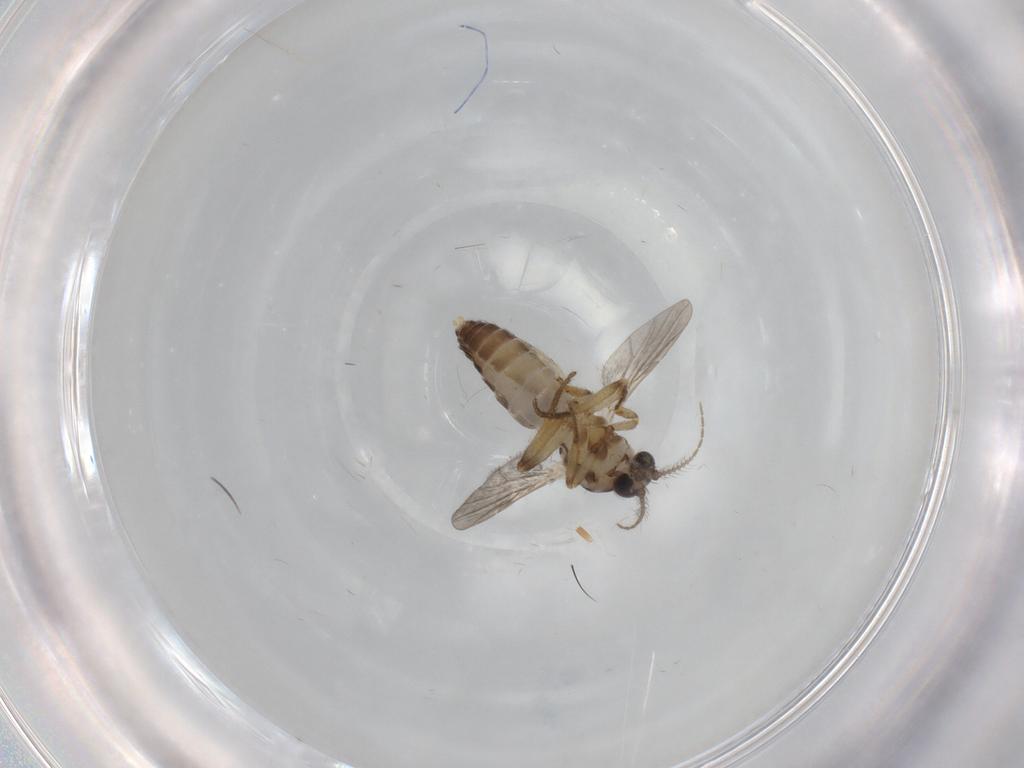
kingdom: Animalia
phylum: Arthropoda
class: Insecta
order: Diptera
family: Ceratopogonidae
